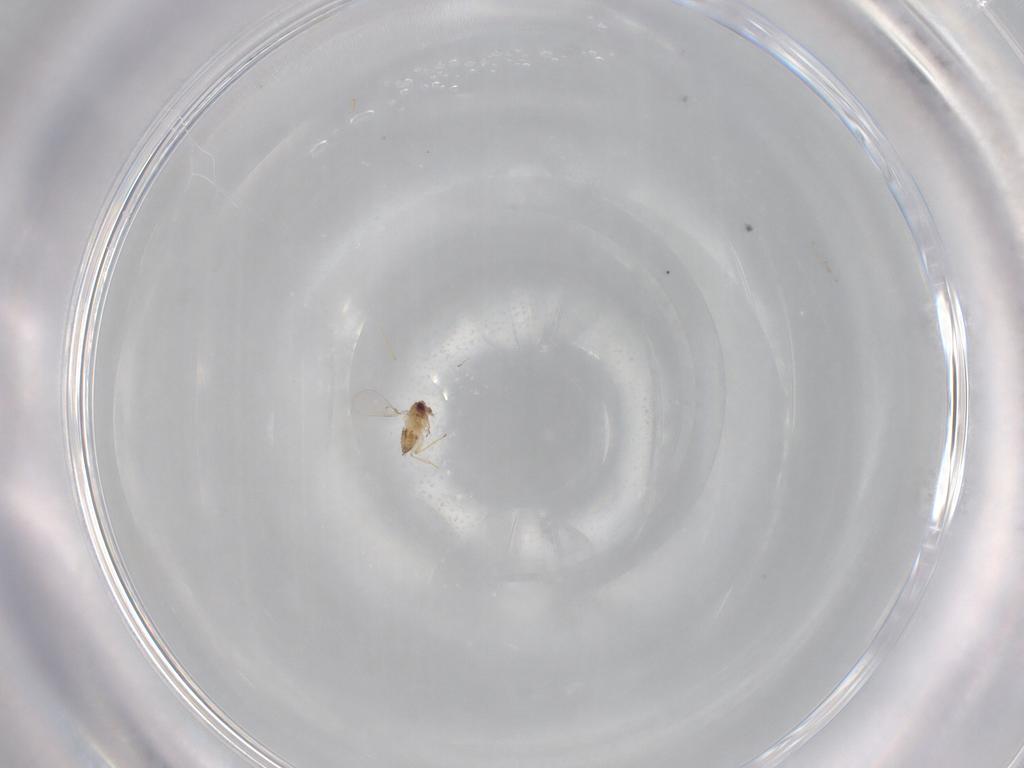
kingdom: Animalia
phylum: Arthropoda
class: Insecta
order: Hymenoptera
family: Trichogrammatidae
